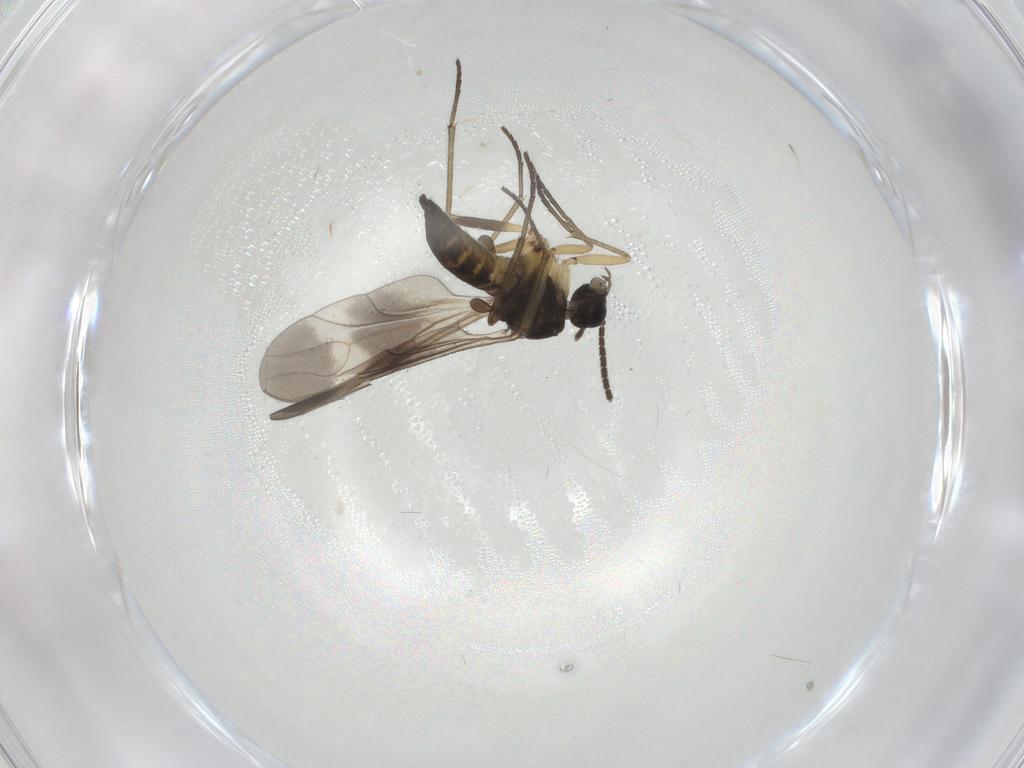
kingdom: Animalia
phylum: Arthropoda
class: Insecta
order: Diptera
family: Sciaridae
